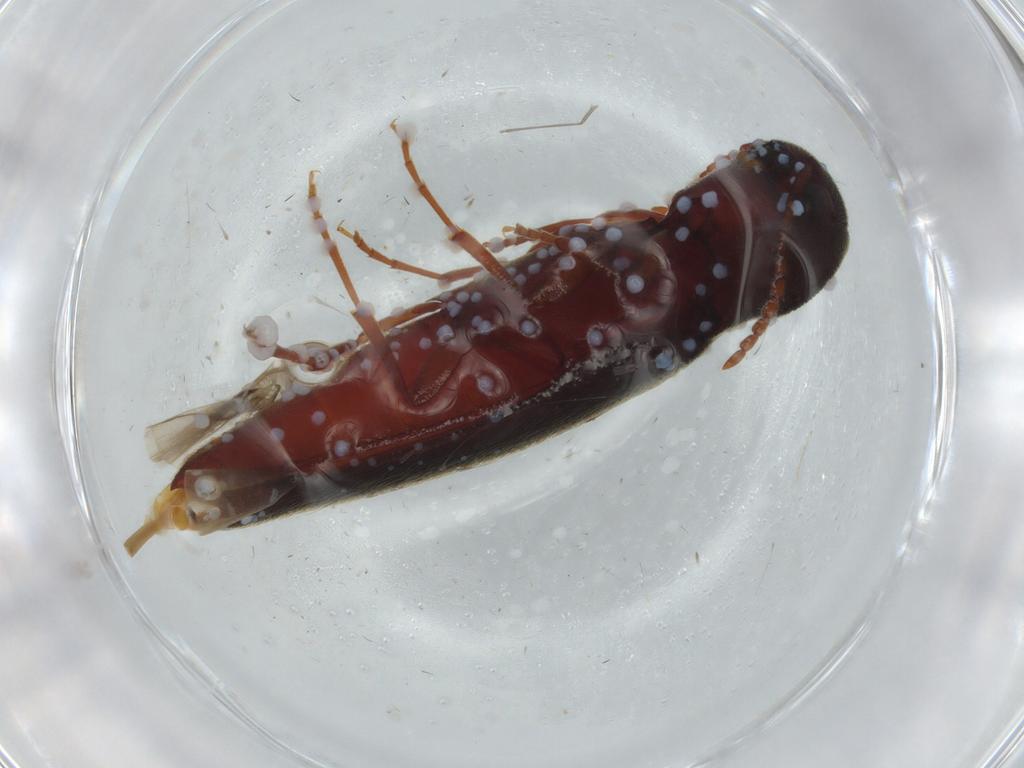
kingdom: Animalia
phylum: Arthropoda
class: Insecta
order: Coleoptera
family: Eucnemidae
